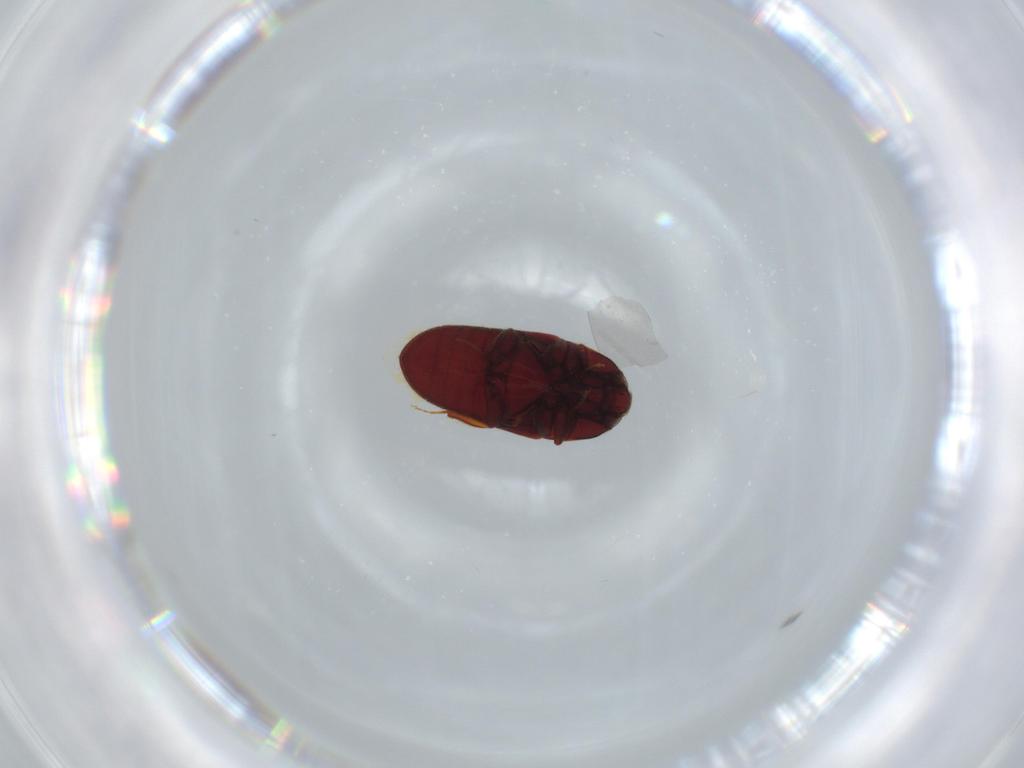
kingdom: Animalia
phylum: Arthropoda
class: Insecta
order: Coleoptera
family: Throscidae
